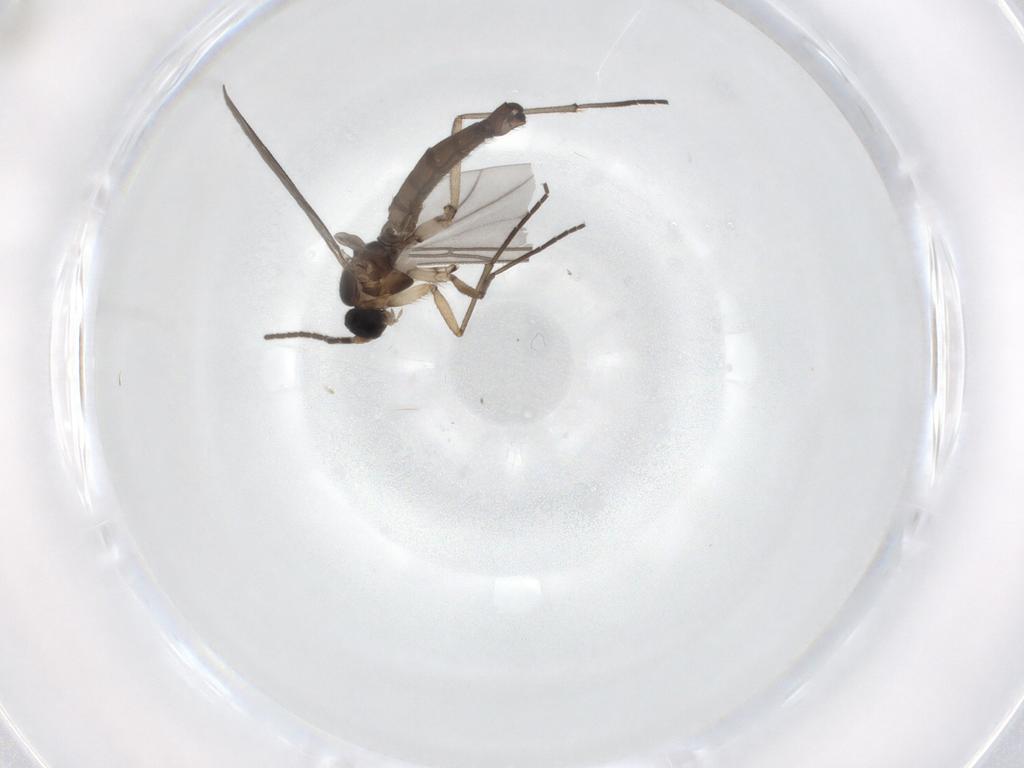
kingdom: Animalia
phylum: Arthropoda
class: Insecta
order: Diptera
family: Sciaridae
